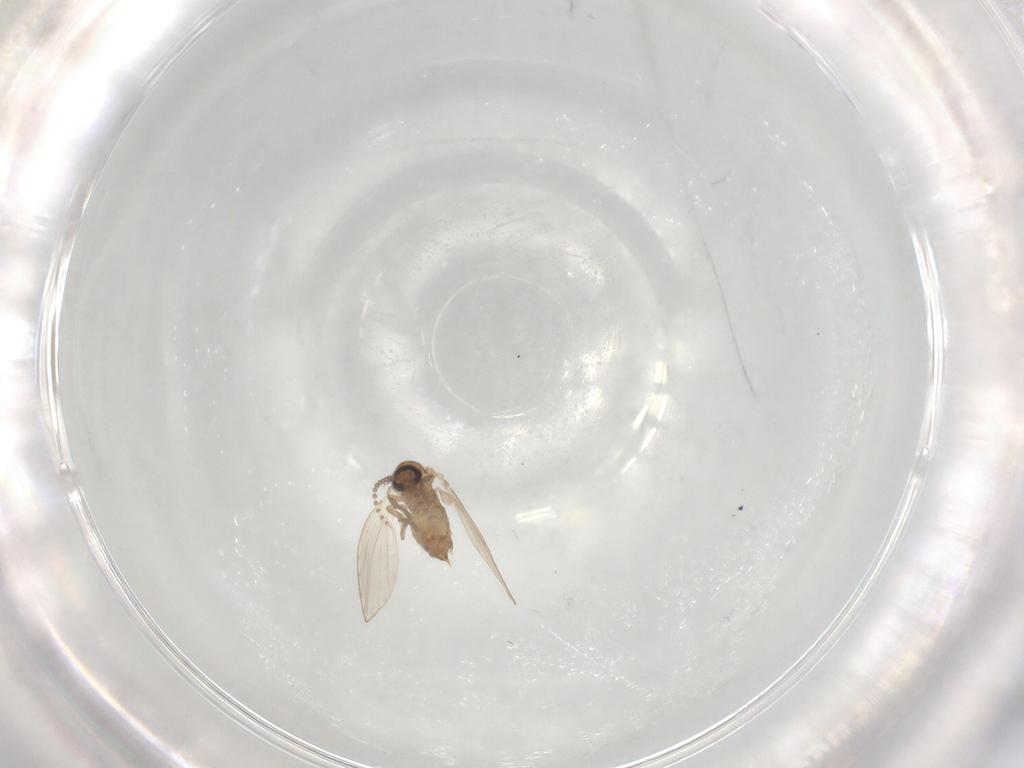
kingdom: Animalia
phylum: Arthropoda
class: Insecta
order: Diptera
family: Psychodidae
